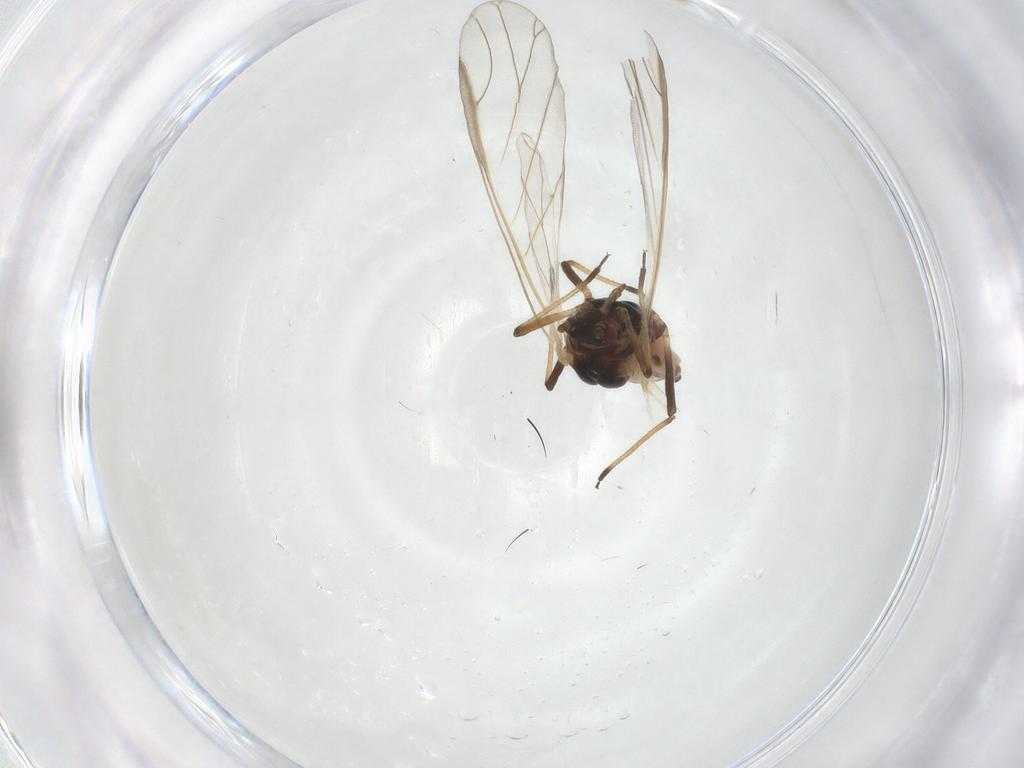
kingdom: Animalia
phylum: Arthropoda
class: Insecta
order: Hemiptera
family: Aphididae
